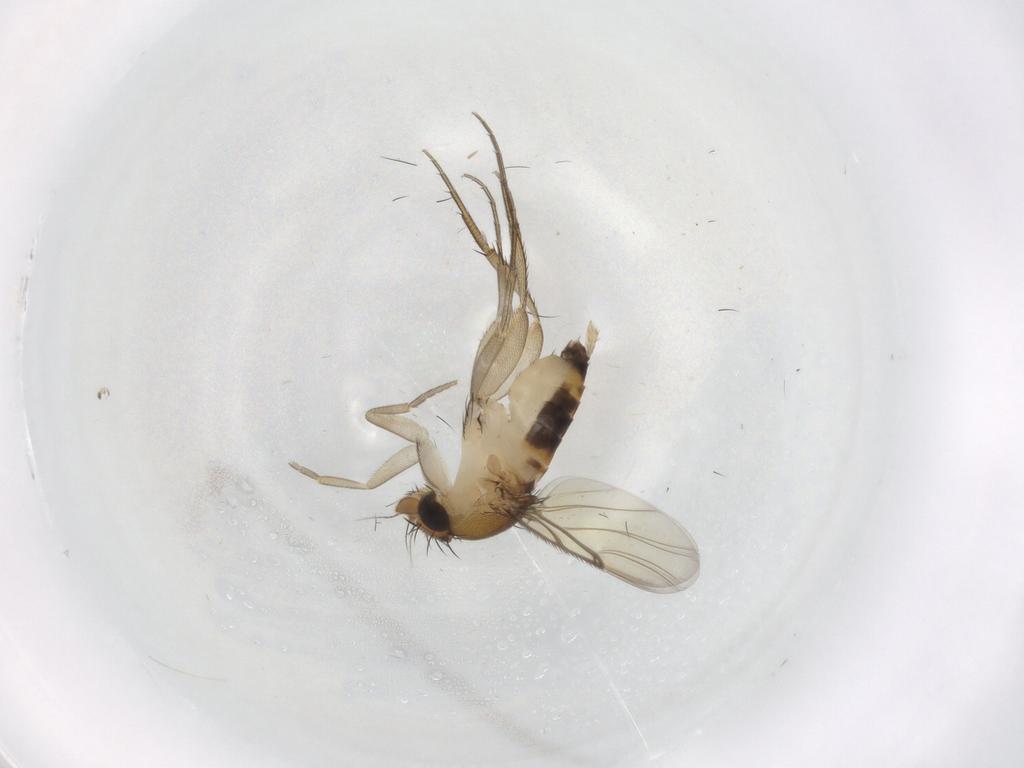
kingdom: Animalia
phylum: Arthropoda
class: Insecta
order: Diptera
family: Phoridae
